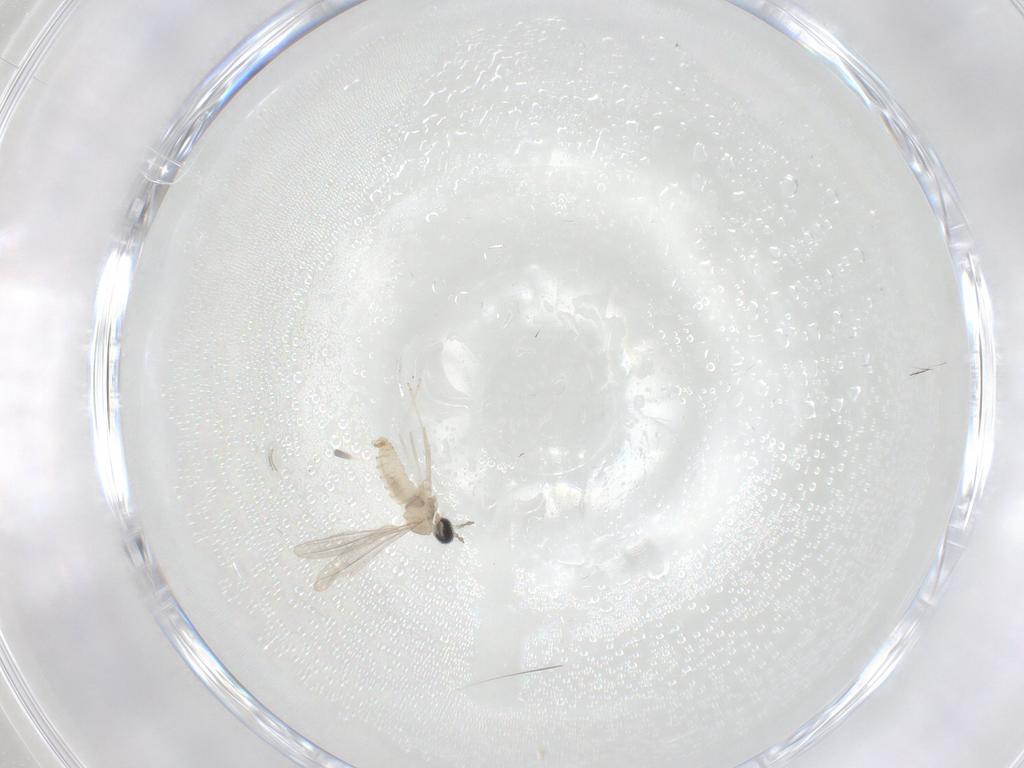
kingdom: Animalia
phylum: Arthropoda
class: Insecta
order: Diptera
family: Cecidomyiidae
